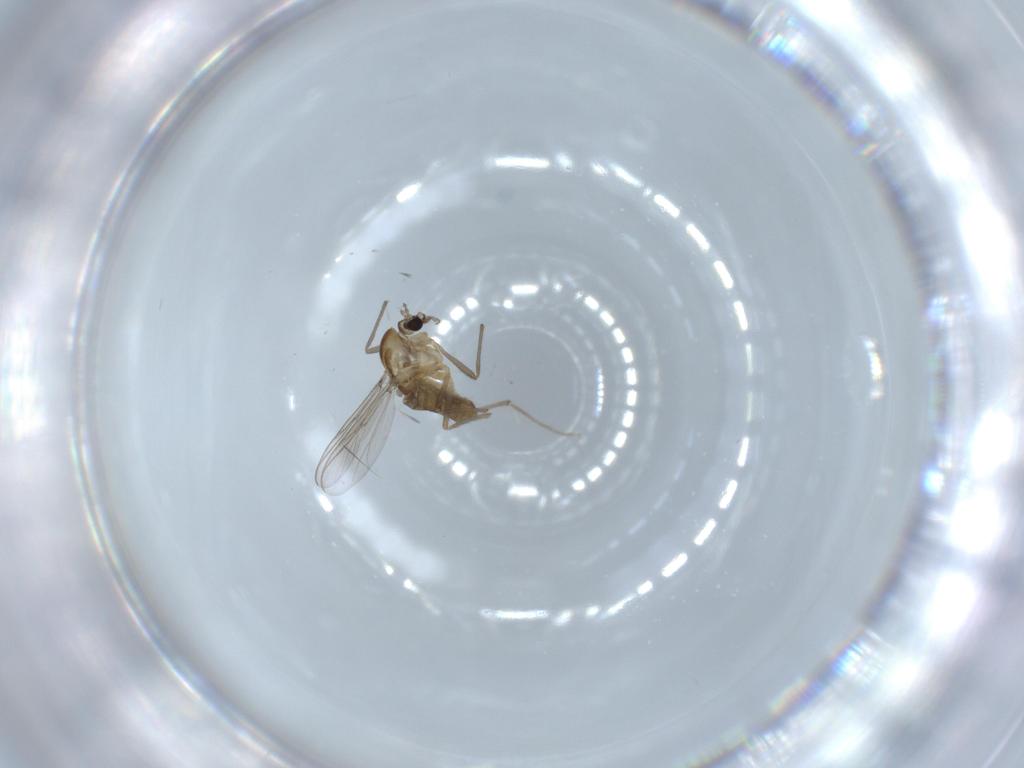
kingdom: Animalia
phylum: Arthropoda
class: Insecta
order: Diptera
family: Chironomidae
